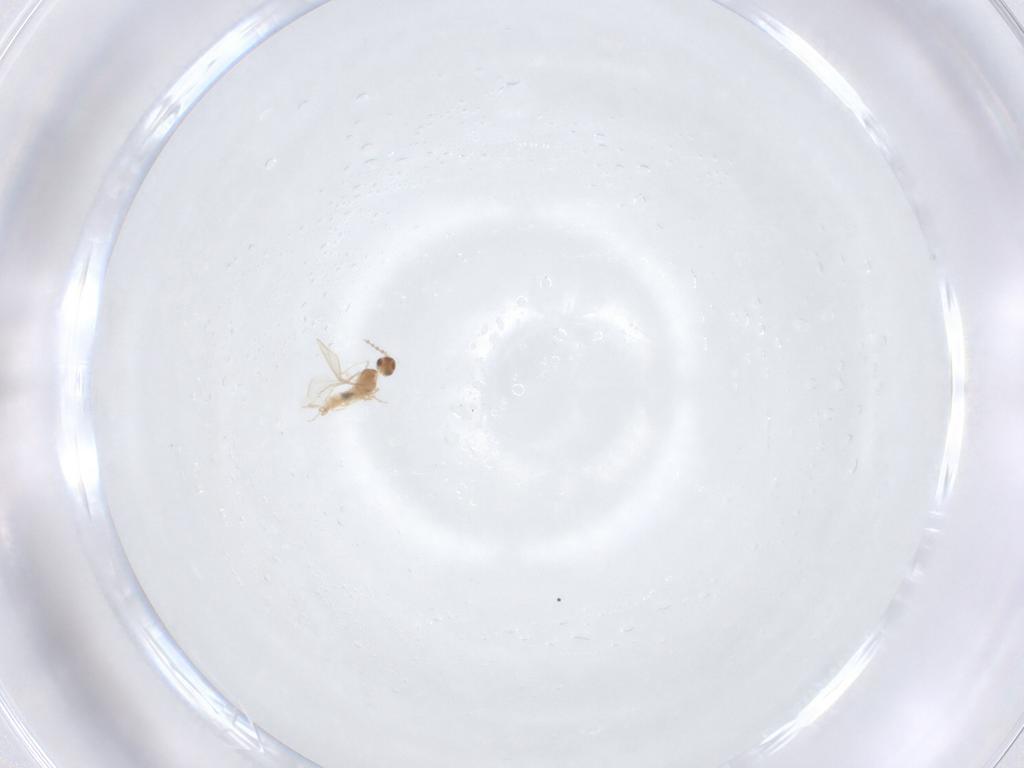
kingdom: Animalia
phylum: Arthropoda
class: Insecta
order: Diptera
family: Cecidomyiidae
